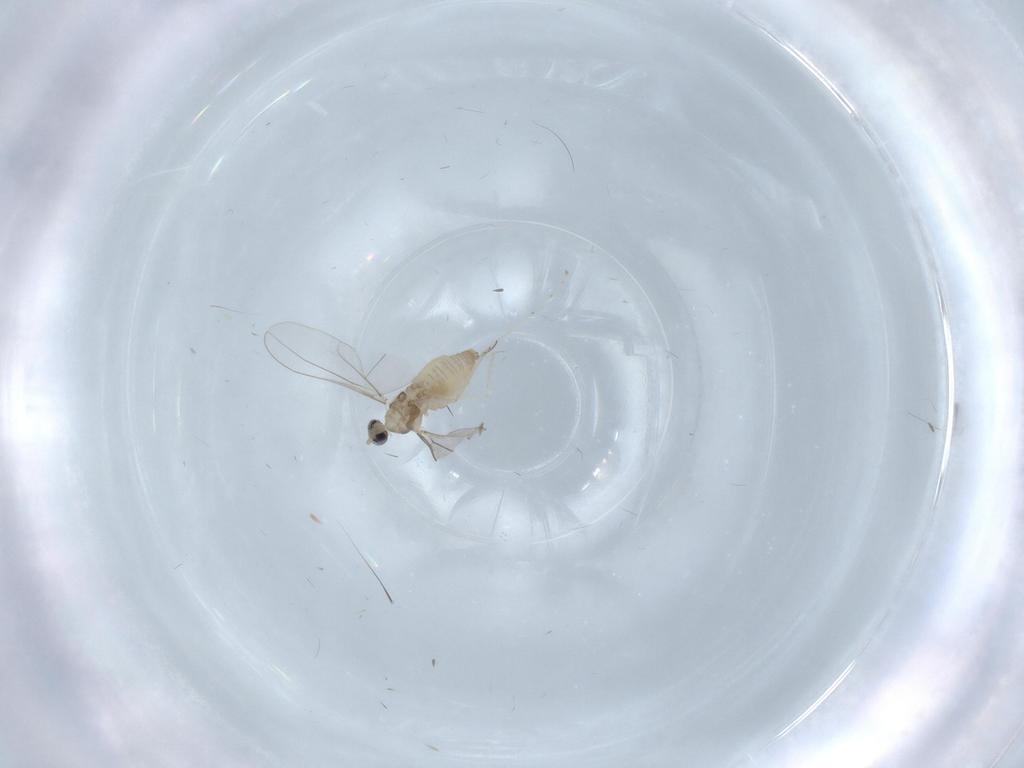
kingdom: Animalia
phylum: Arthropoda
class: Insecta
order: Diptera
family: Cecidomyiidae
